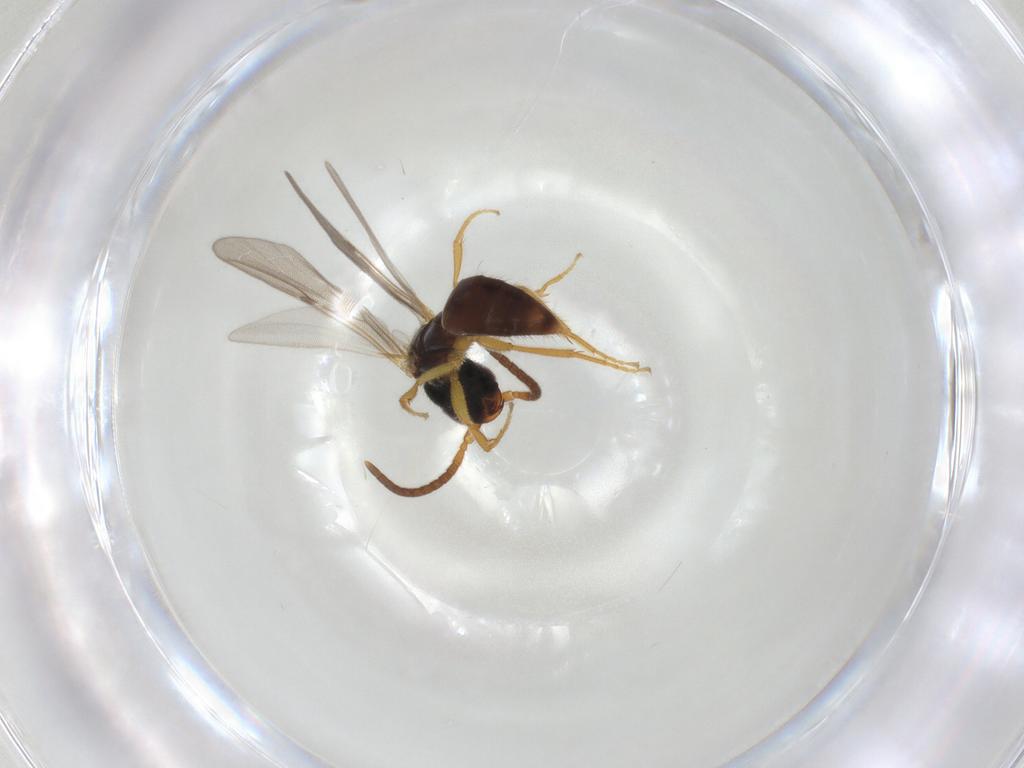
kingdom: Animalia
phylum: Arthropoda
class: Insecta
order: Hymenoptera
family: Bethylidae
